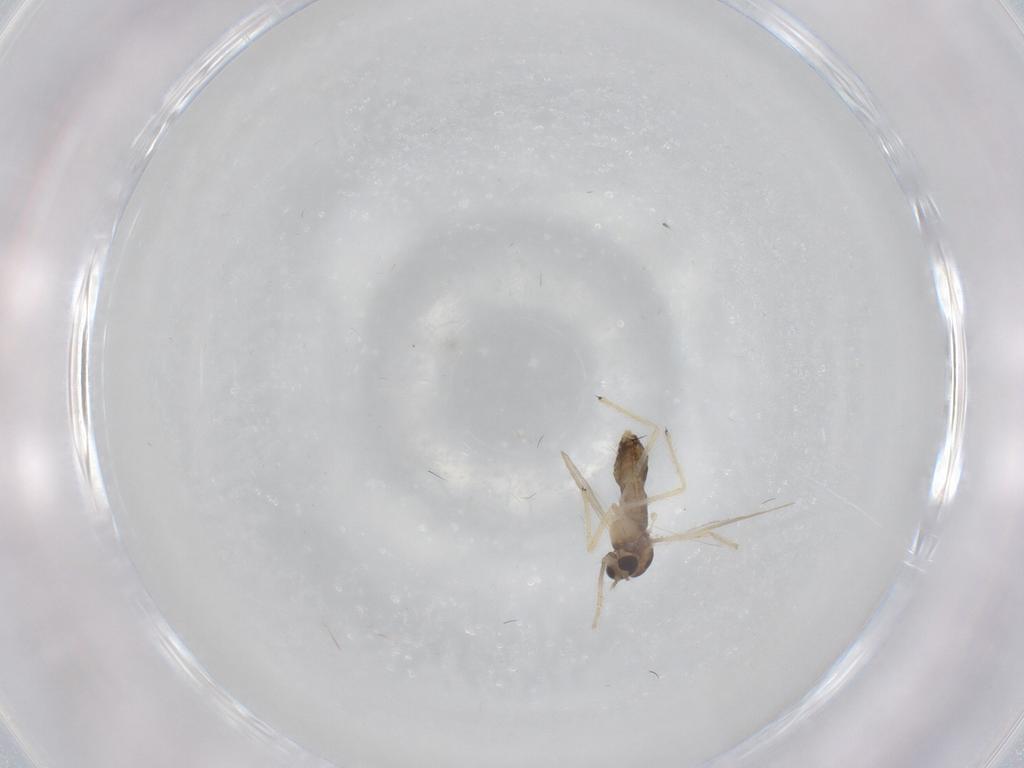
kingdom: Animalia
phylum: Arthropoda
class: Insecta
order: Diptera
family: Chironomidae
